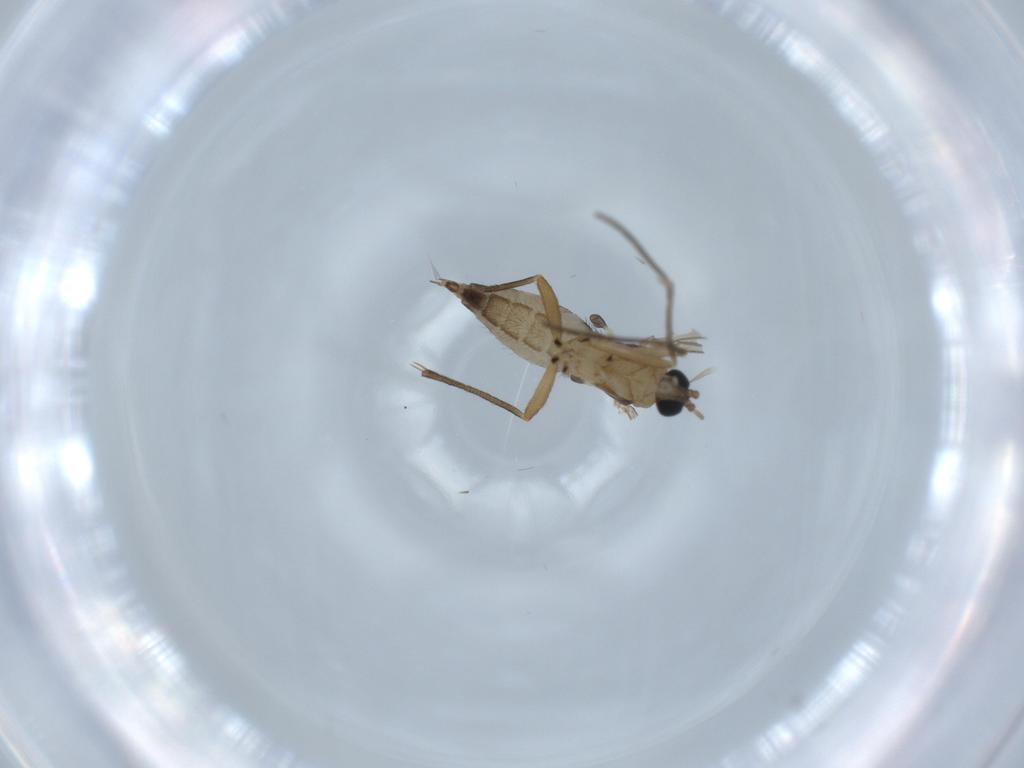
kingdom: Animalia
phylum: Arthropoda
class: Insecta
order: Diptera
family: Sciaridae
